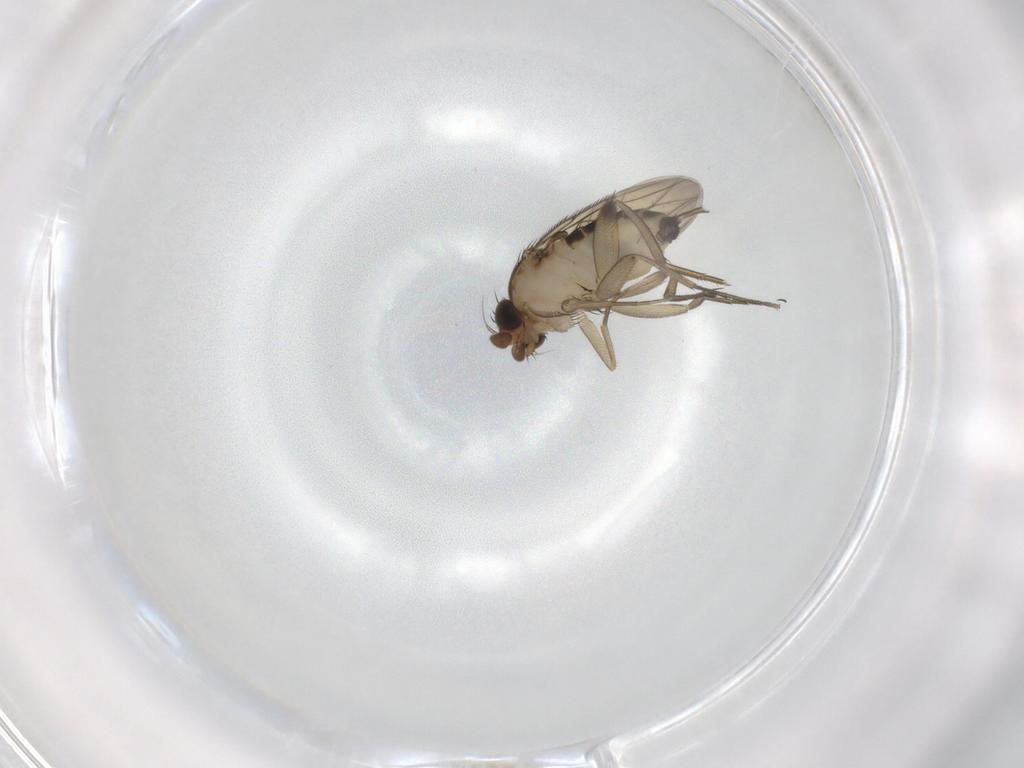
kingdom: Animalia
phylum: Arthropoda
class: Insecta
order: Diptera
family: Phoridae
